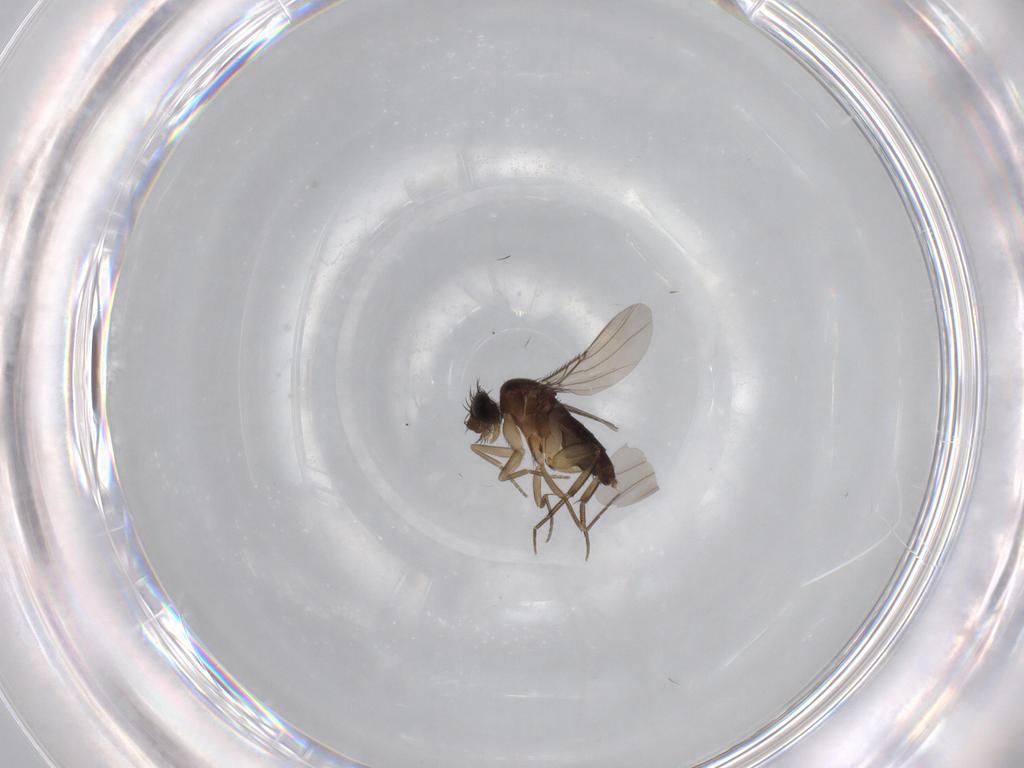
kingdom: Animalia
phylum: Arthropoda
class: Insecta
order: Diptera
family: Phoridae
